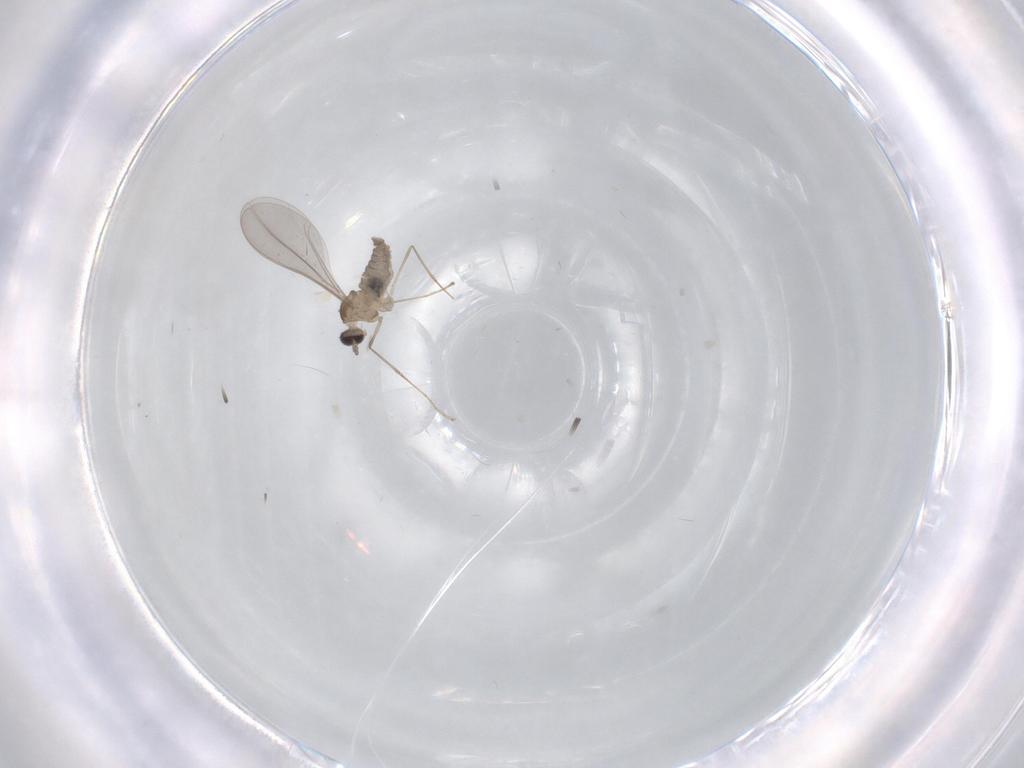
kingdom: Animalia
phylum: Arthropoda
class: Insecta
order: Diptera
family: Cecidomyiidae
